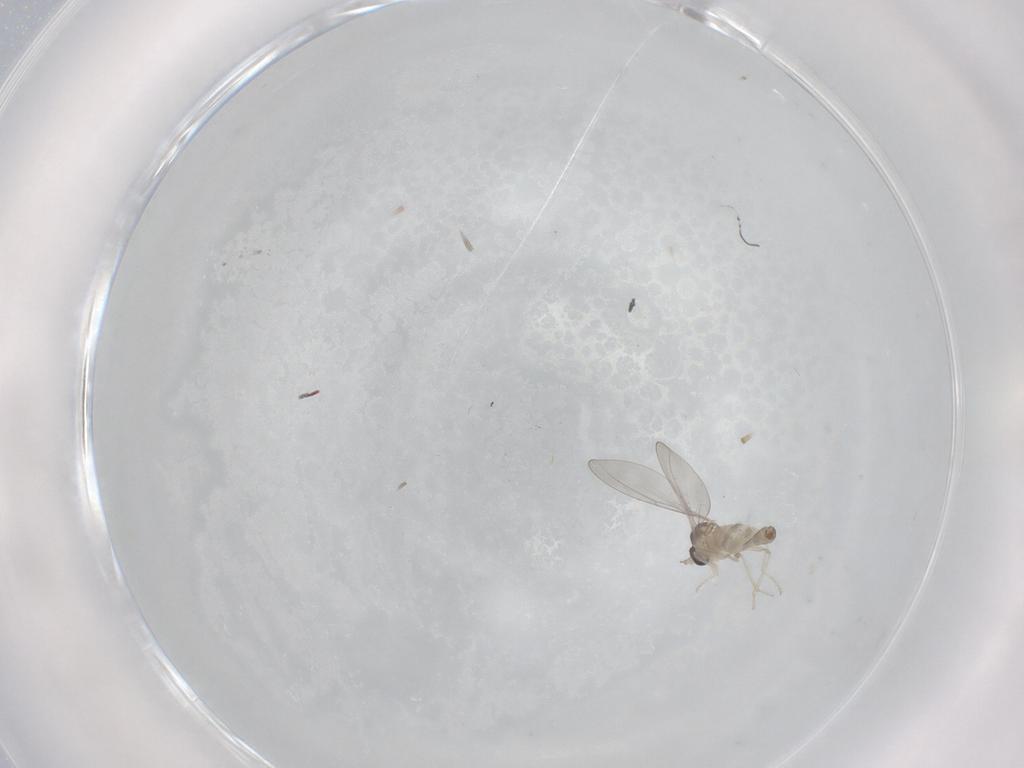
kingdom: Animalia
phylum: Arthropoda
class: Insecta
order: Diptera
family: Cecidomyiidae
